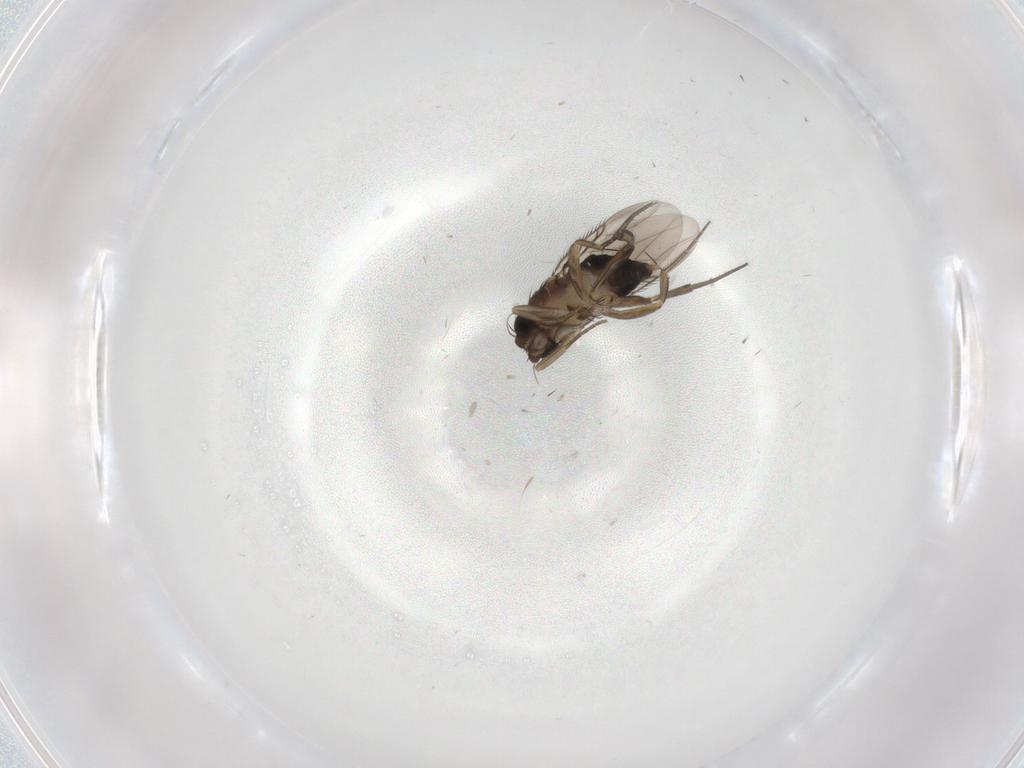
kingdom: Animalia
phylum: Arthropoda
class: Insecta
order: Diptera
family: Phoridae
